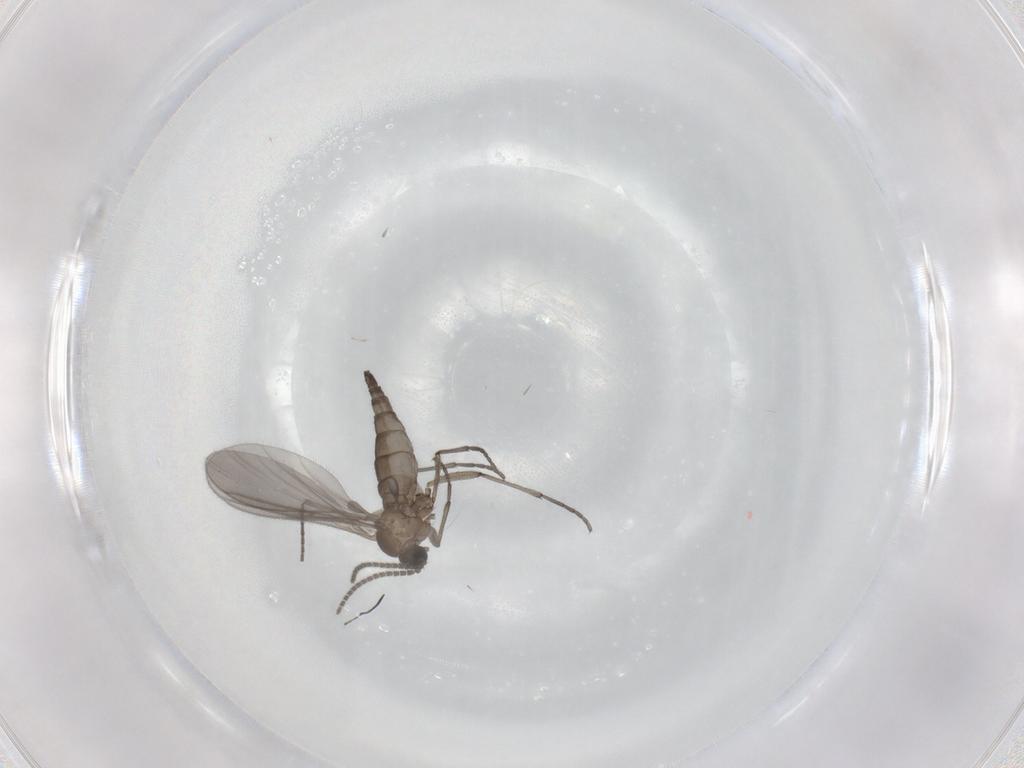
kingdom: Animalia
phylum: Arthropoda
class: Insecta
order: Diptera
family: Sciaridae
